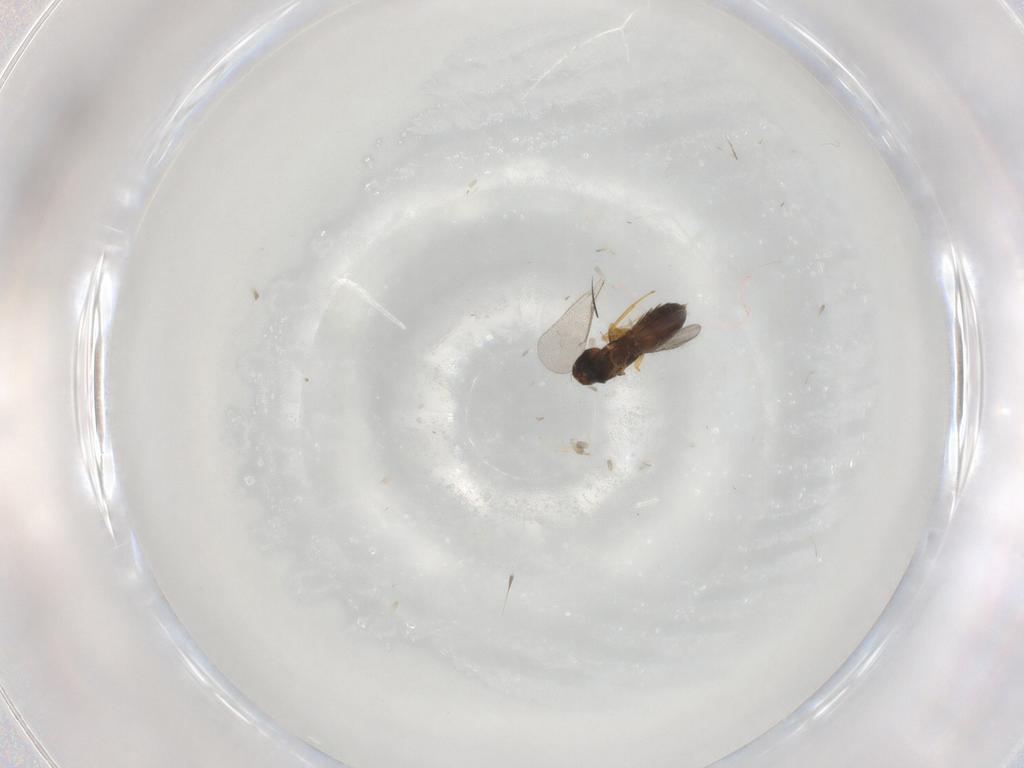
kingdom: Animalia
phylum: Arthropoda
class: Insecta
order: Hymenoptera
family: Eulophidae
